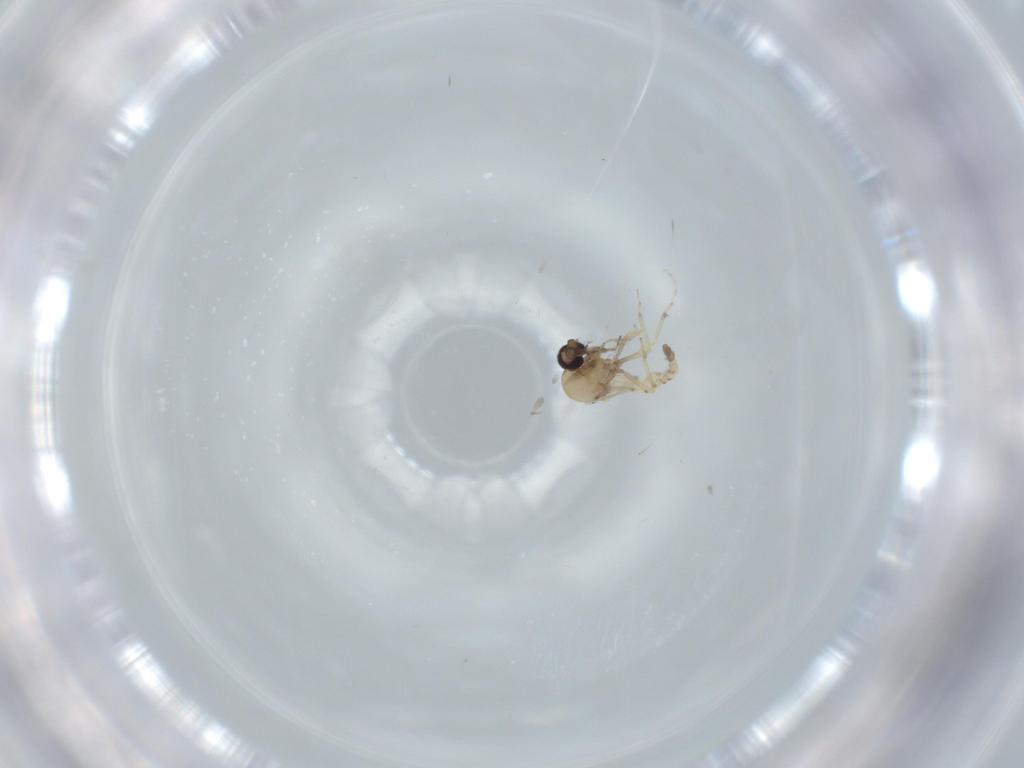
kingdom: Animalia
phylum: Arthropoda
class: Insecta
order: Diptera
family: Ceratopogonidae
